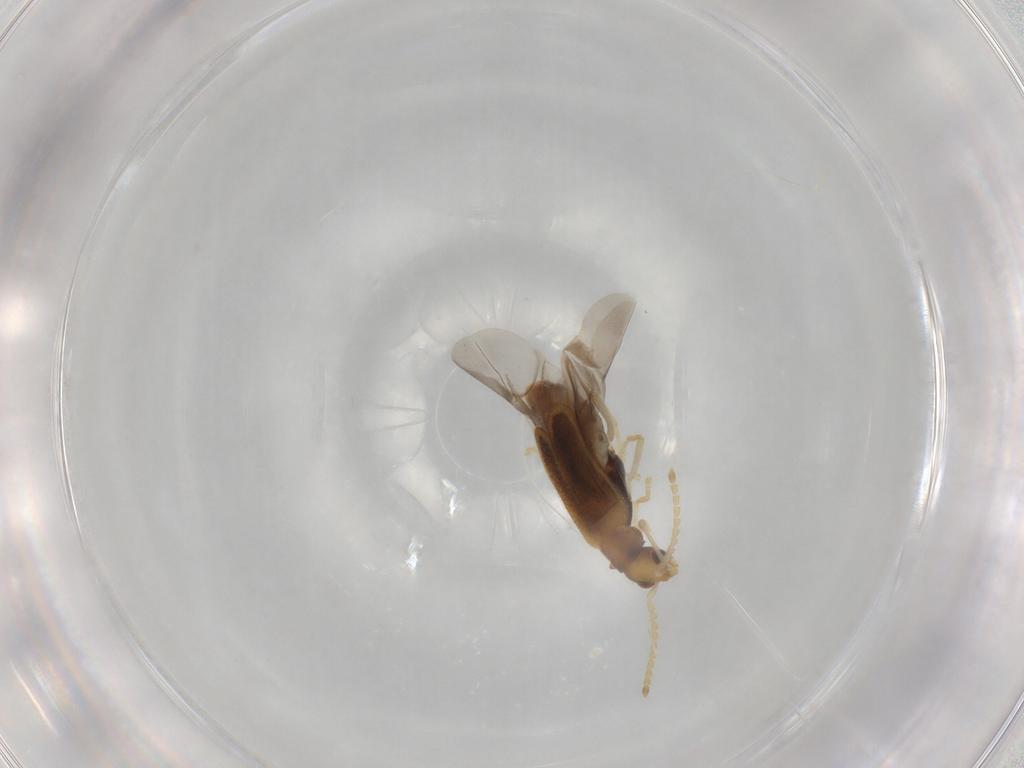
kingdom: Animalia
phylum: Arthropoda
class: Insecta
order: Coleoptera
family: Cantharidae
